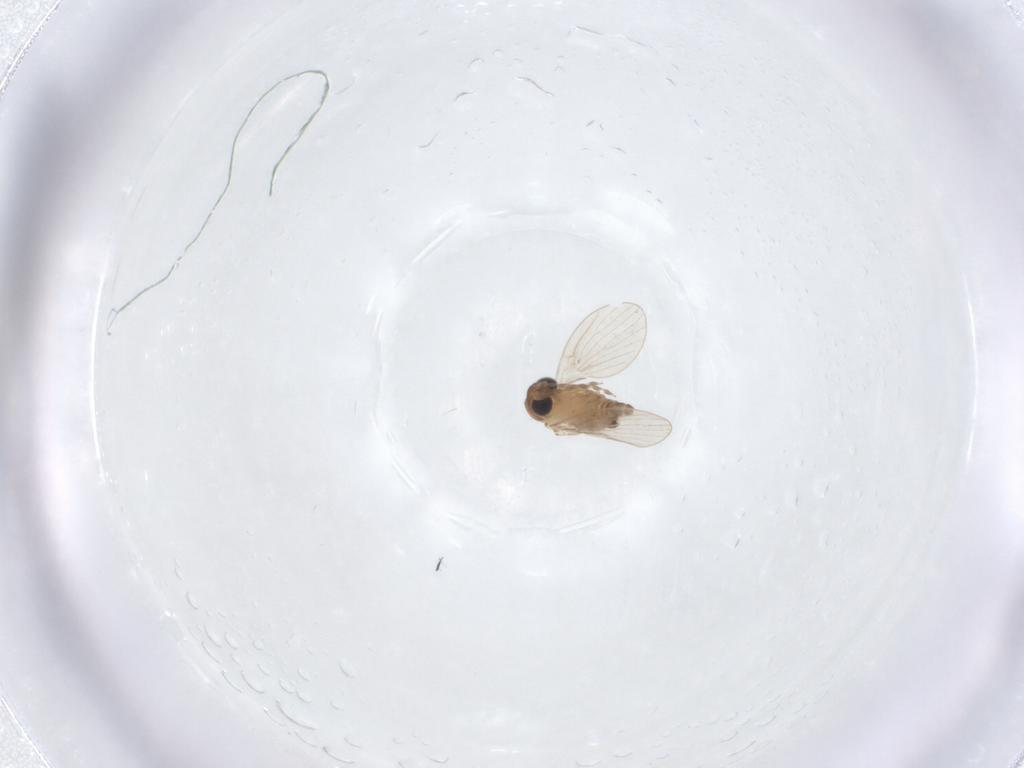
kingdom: Animalia
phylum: Arthropoda
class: Insecta
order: Diptera
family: Psychodidae
